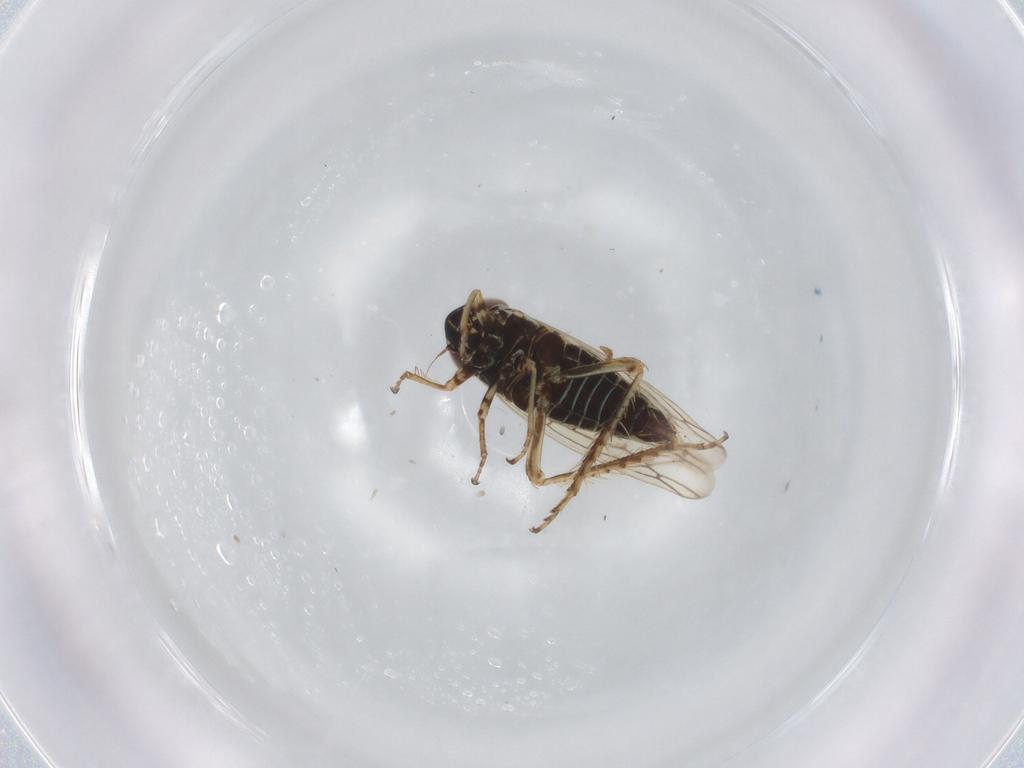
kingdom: Animalia
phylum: Arthropoda
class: Insecta
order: Hemiptera
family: Cicadellidae
